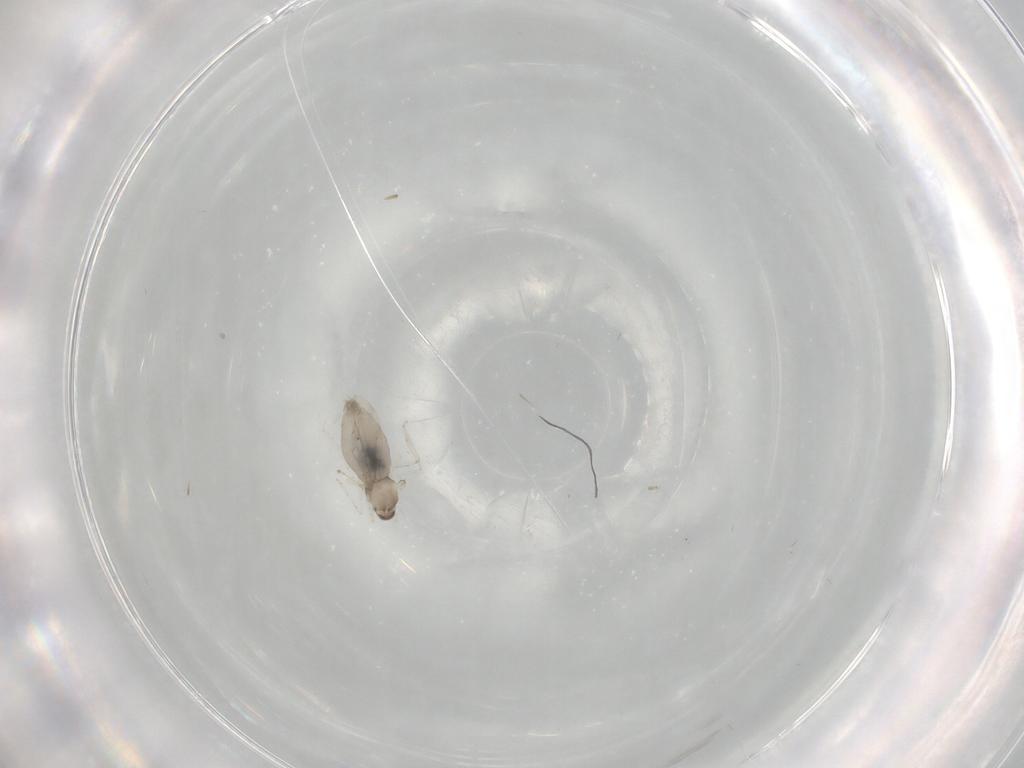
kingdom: Animalia
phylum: Arthropoda
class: Insecta
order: Diptera
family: Cecidomyiidae
